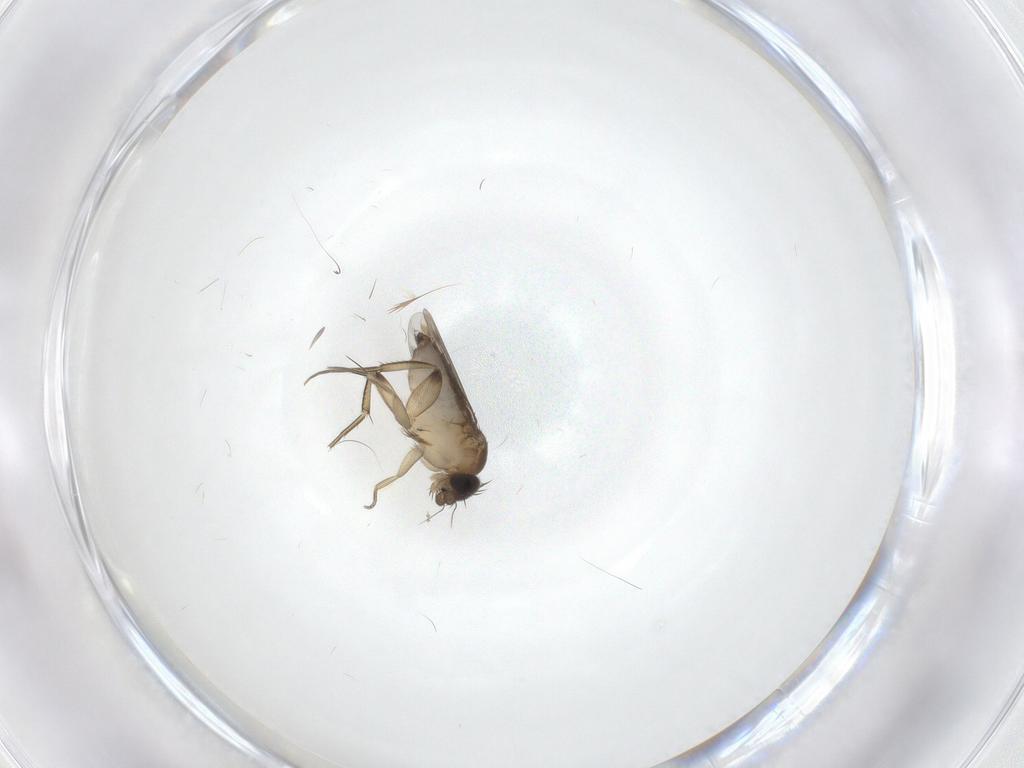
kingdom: Animalia
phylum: Arthropoda
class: Insecta
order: Diptera
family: Phoridae
